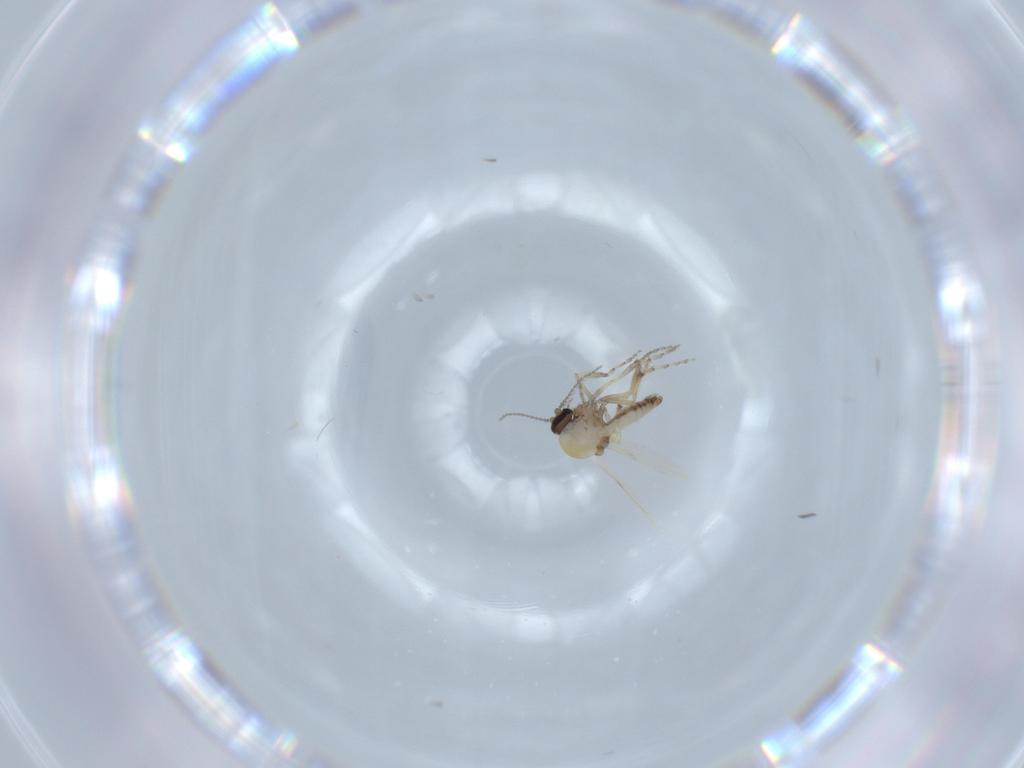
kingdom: Animalia
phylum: Arthropoda
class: Insecta
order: Diptera
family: Ceratopogonidae
